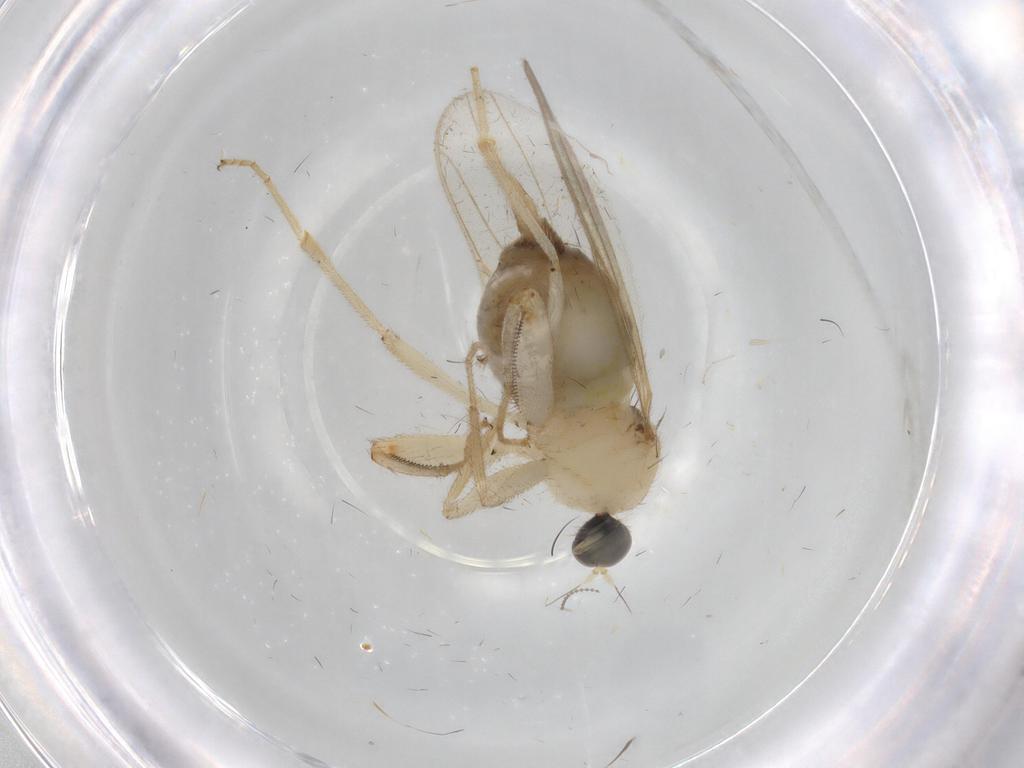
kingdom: Animalia
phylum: Arthropoda
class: Insecta
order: Diptera
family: Hybotidae
